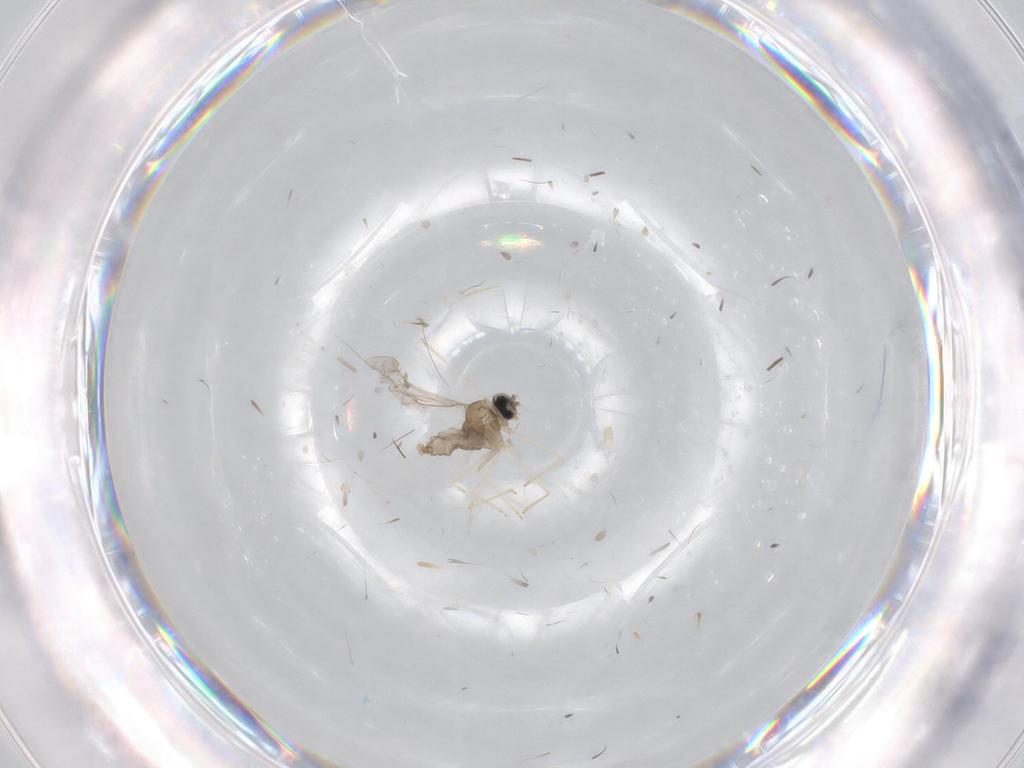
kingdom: Animalia
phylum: Arthropoda
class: Insecta
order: Diptera
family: Cecidomyiidae
